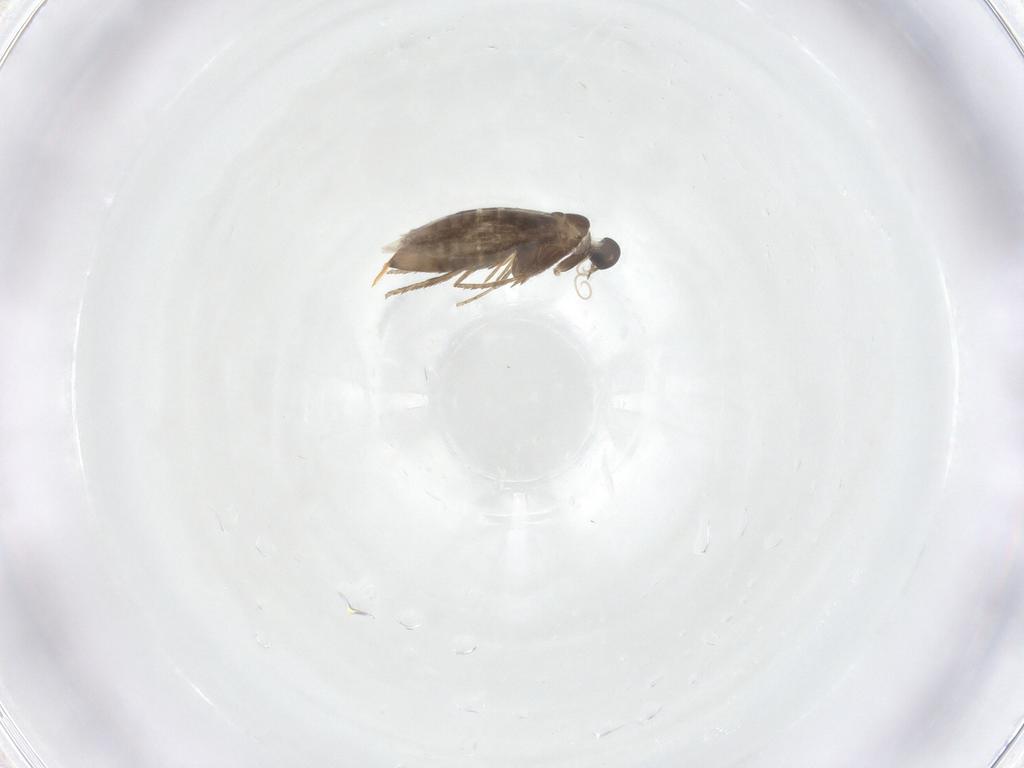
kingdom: Animalia
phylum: Arthropoda
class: Insecta
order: Lepidoptera
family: Heliozelidae
